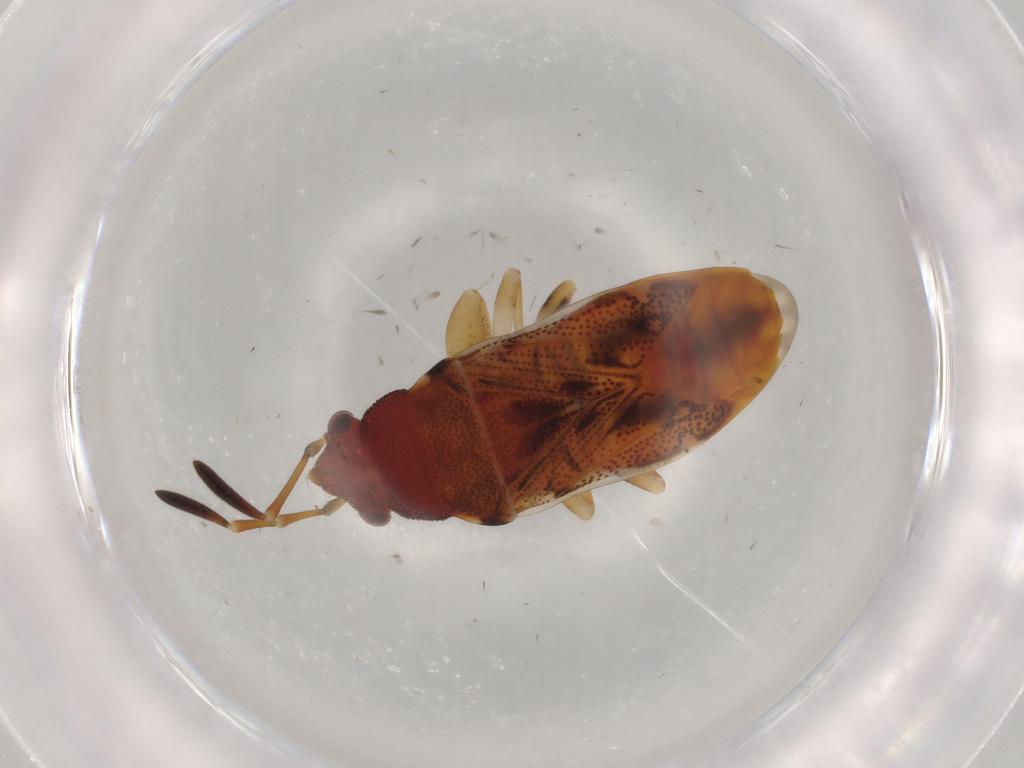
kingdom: Animalia
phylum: Arthropoda
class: Insecta
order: Hemiptera
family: Rhyparochromidae
